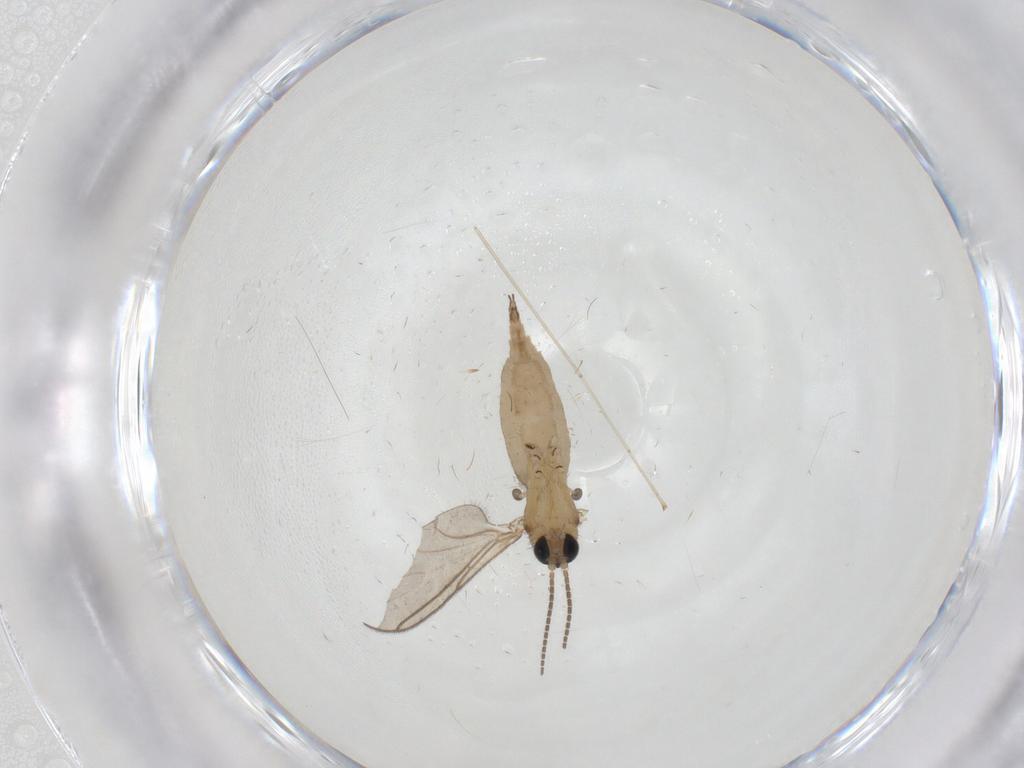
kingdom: Animalia
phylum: Arthropoda
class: Insecta
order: Diptera
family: Sciaridae
